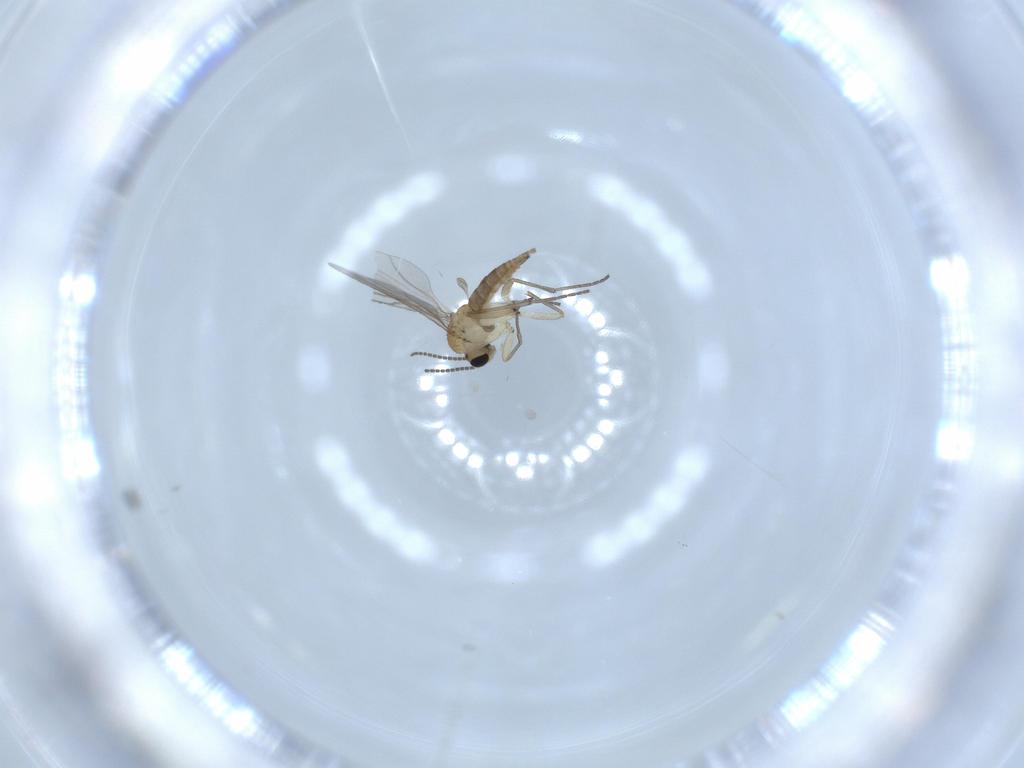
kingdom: Animalia
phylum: Arthropoda
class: Insecta
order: Diptera
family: Sciaridae
